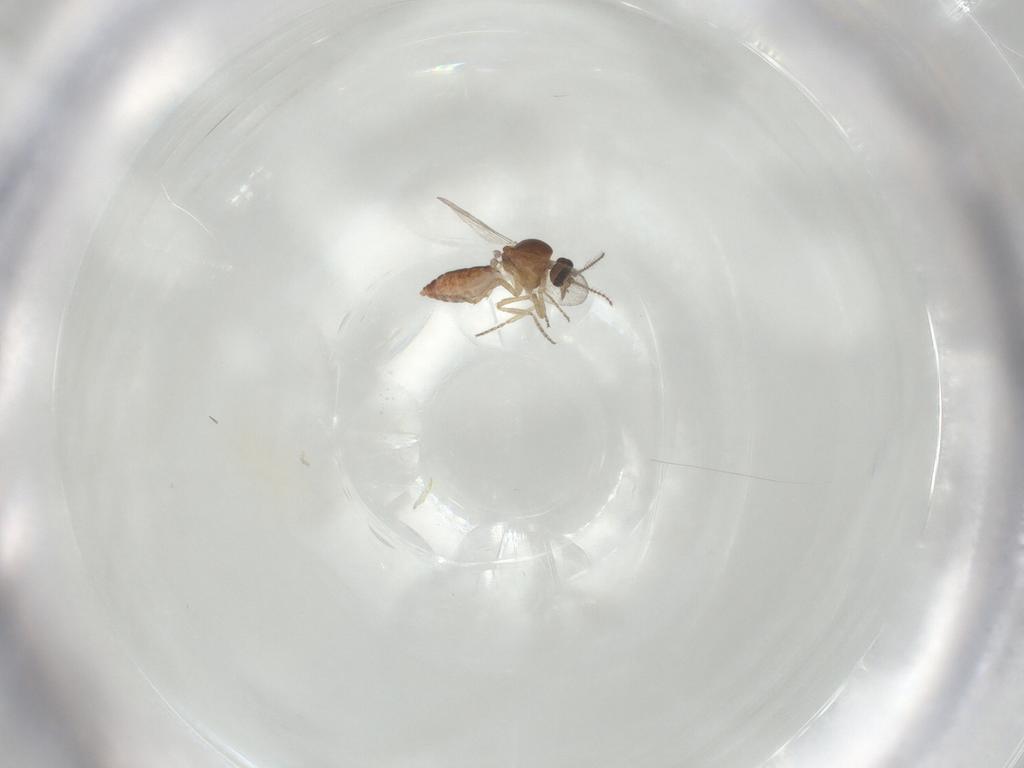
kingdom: Animalia
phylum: Arthropoda
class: Insecta
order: Diptera
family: Ceratopogonidae
